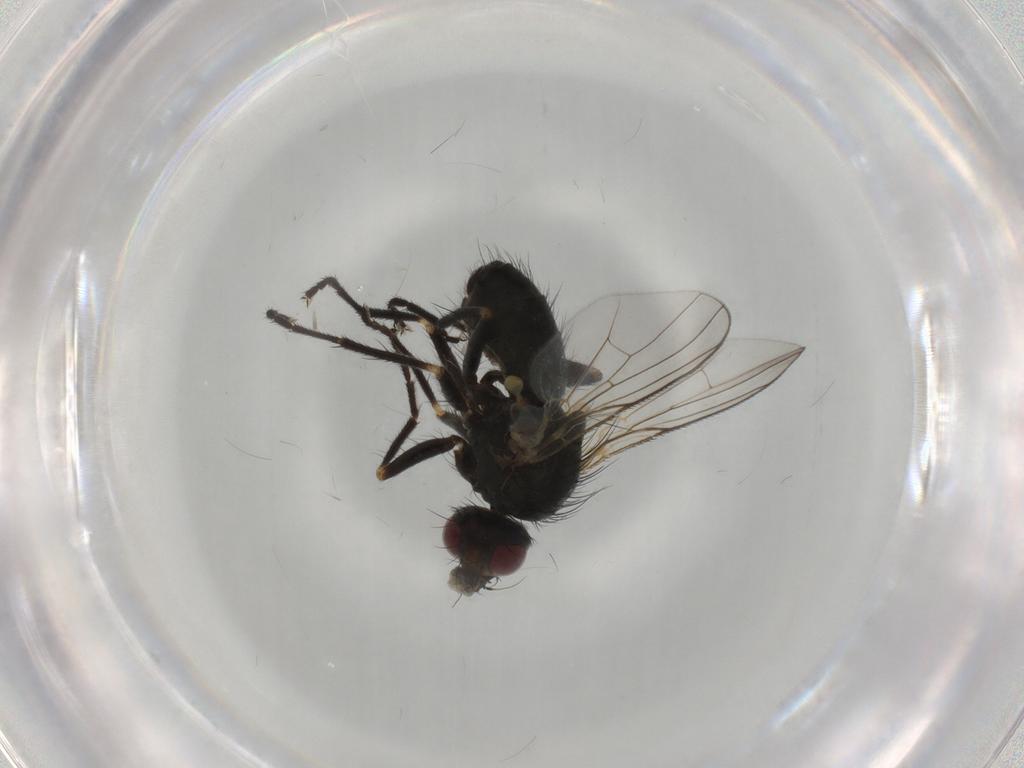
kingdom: Animalia
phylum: Arthropoda
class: Insecta
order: Diptera
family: Muscidae
